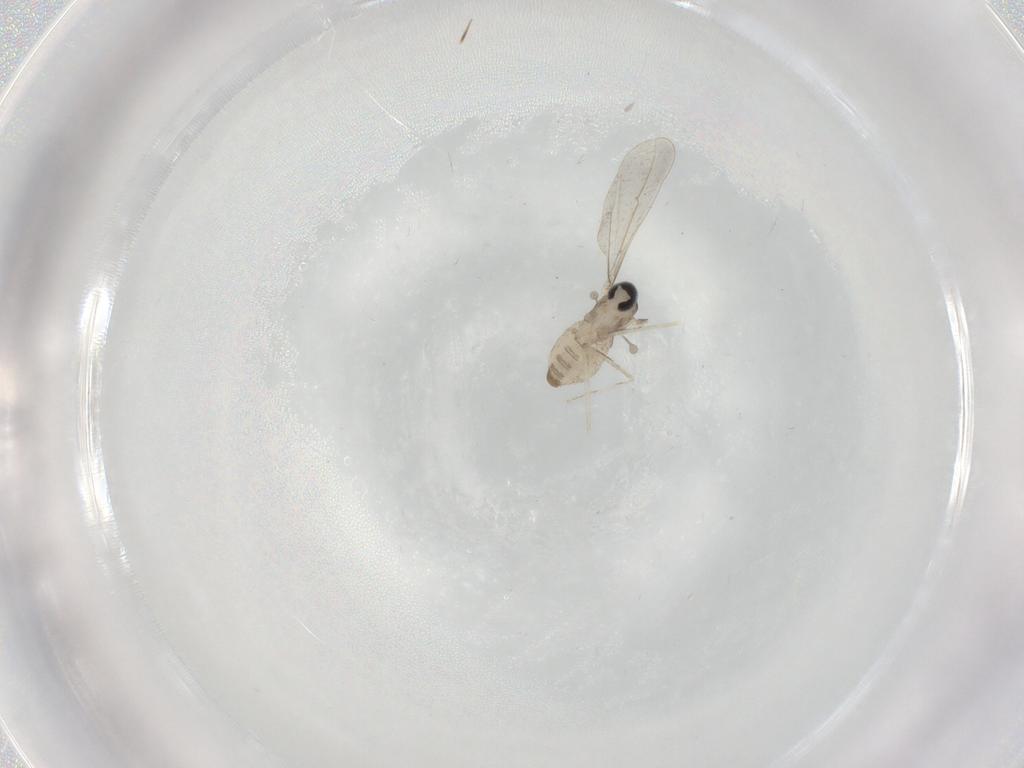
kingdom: Animalia
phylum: Arthropoda
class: Insecta
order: Diptera
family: Cecidomyiidae
